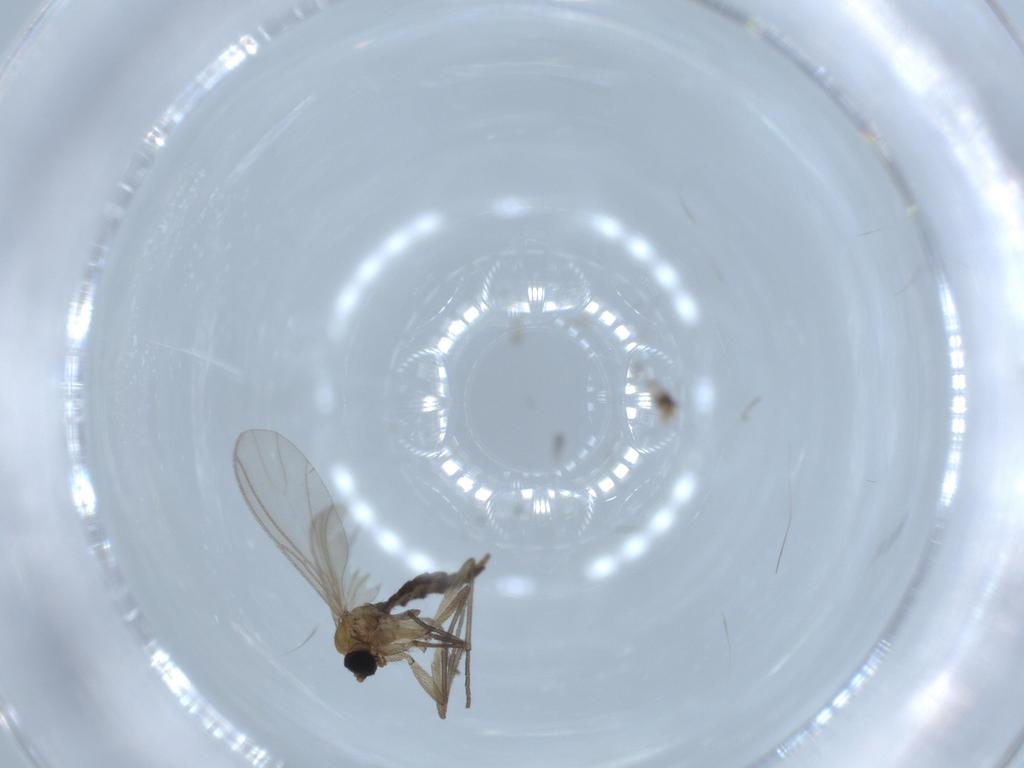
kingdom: Animalia
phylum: Arthropoda
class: Insecta
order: Diptera
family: Sciaridae
